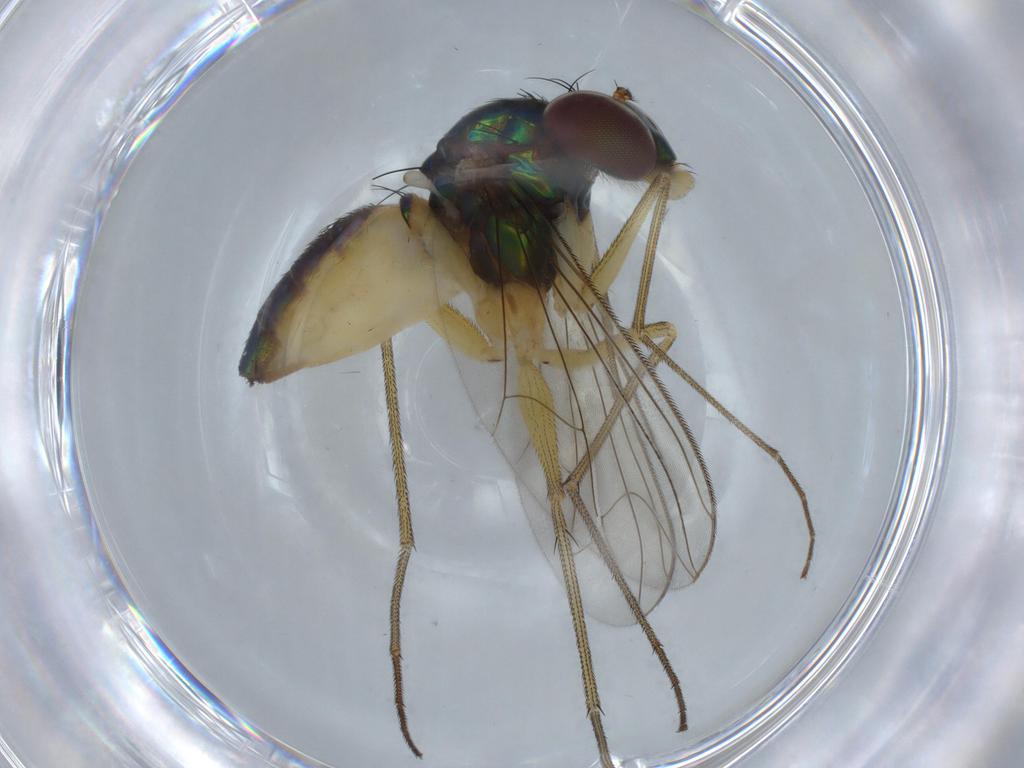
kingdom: Animalia
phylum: Arthropoda
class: Insecta
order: Diptera
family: Dolichopodidae
